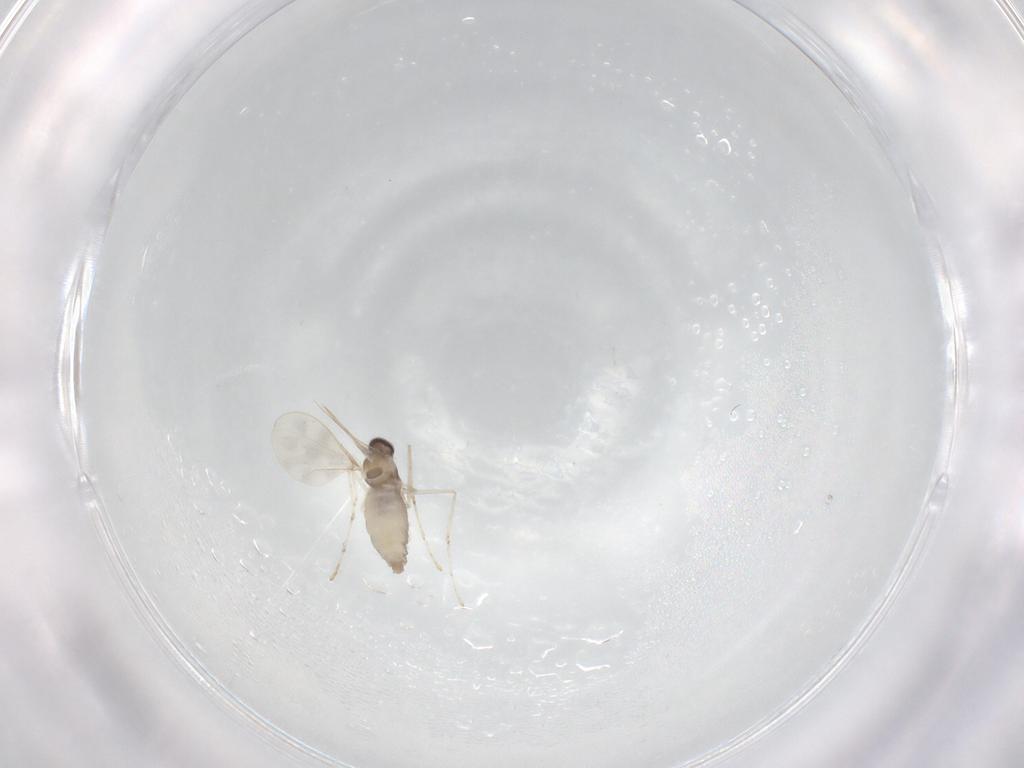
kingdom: Animalia
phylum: Arthropoda
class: Insecta
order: Diptera
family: Cecidomyiidae
